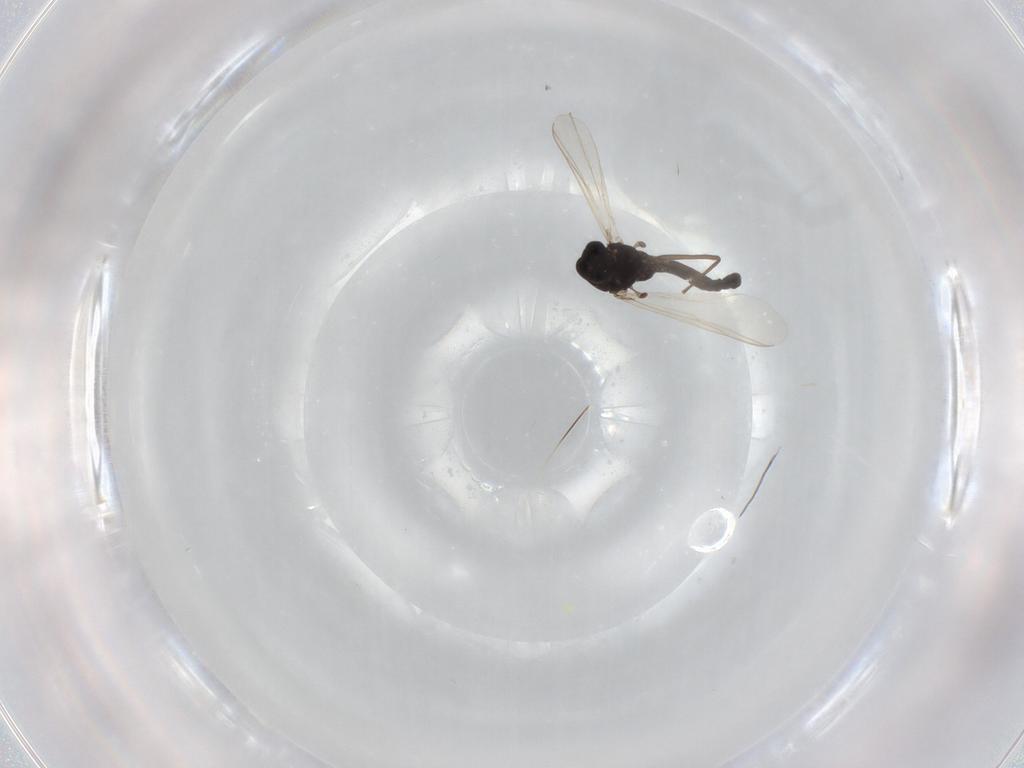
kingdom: Animalia
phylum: Arthropoda
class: Insecta
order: Diptera
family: Chironomidae
